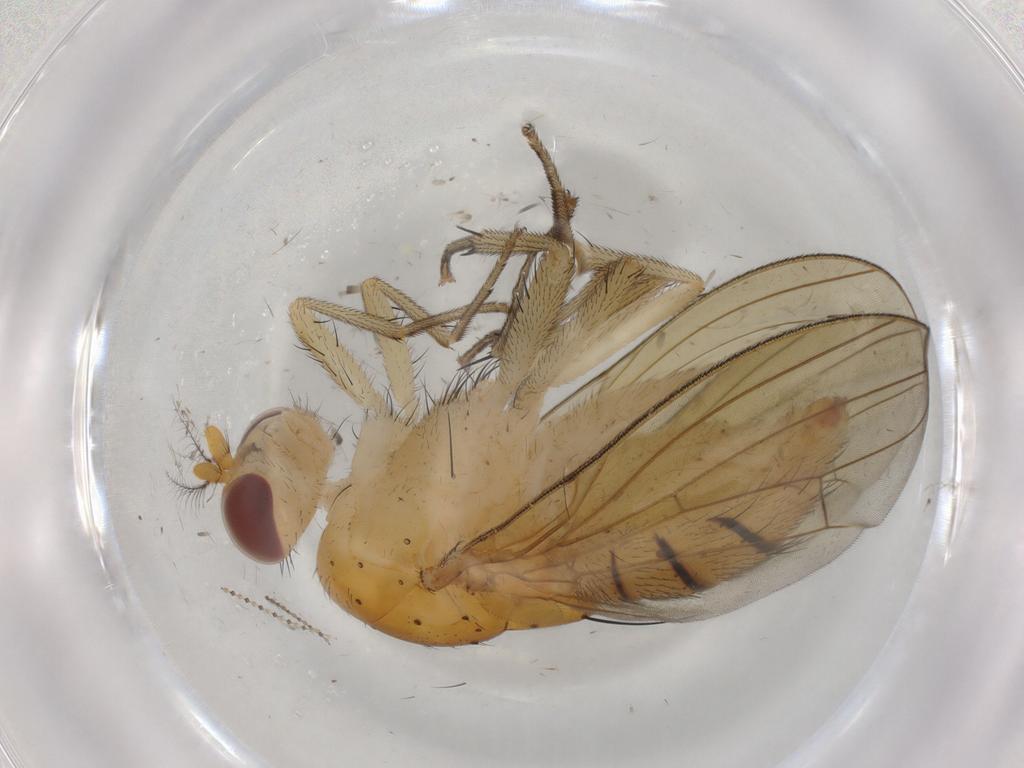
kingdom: Animalia
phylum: Arthropoda
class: Insecta
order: Diptera
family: Cecidomyiidae
